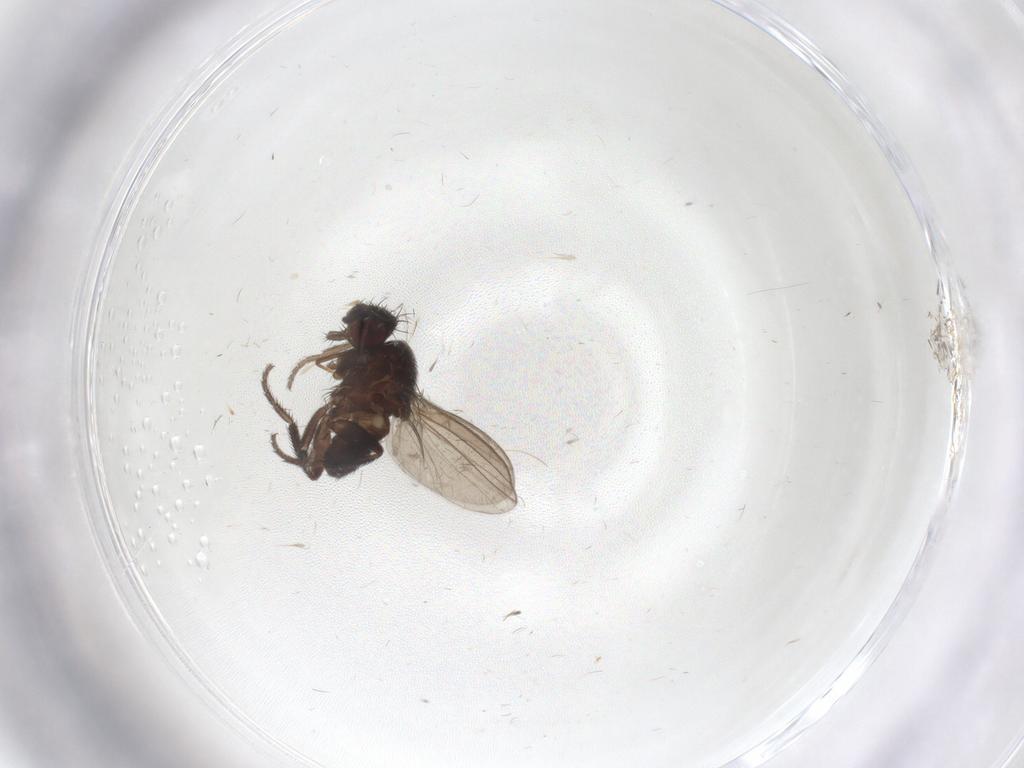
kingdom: Animalia
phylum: Arthropoda
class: Insecta
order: Diptera
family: Milichiidae
